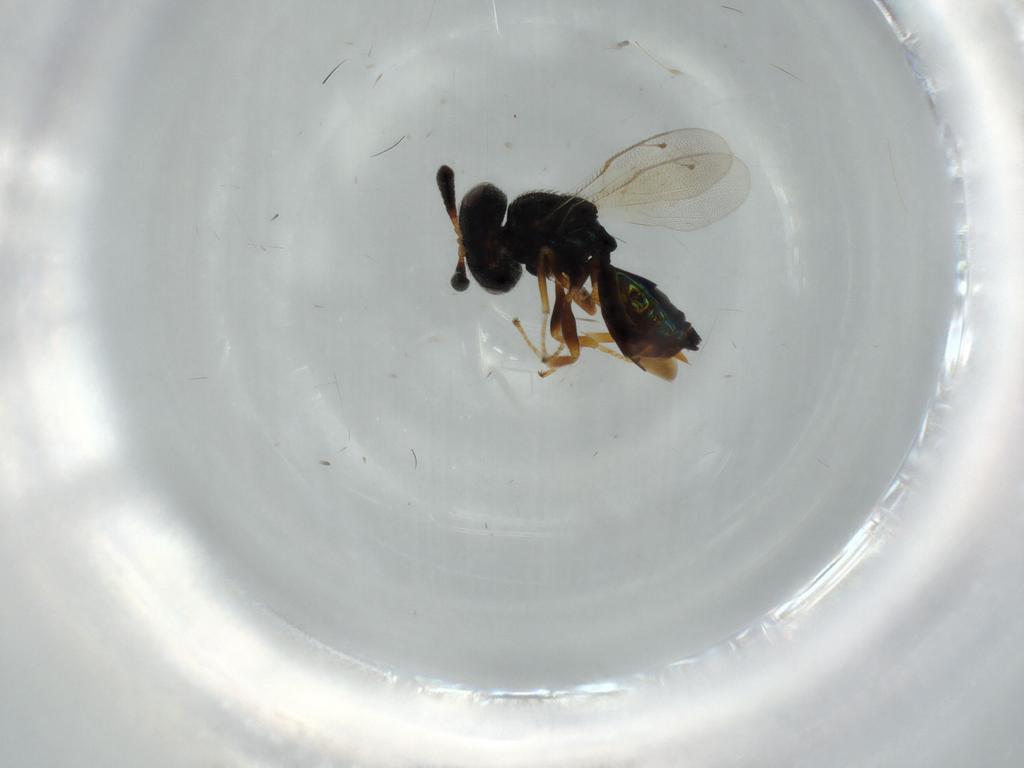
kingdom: Animalia
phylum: Arthropoda
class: Insecta
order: Hymenoptera
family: Agaonidae
